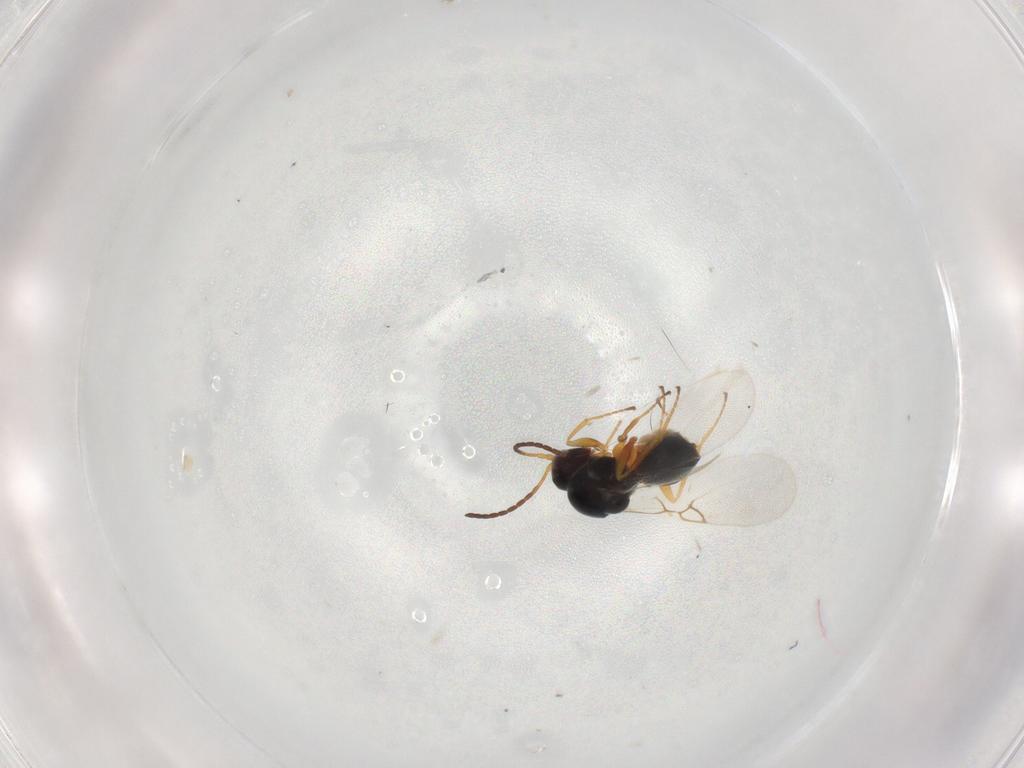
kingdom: Animalia
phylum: Arthropoda
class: Insecta
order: Hymenoptera
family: Figitidae
